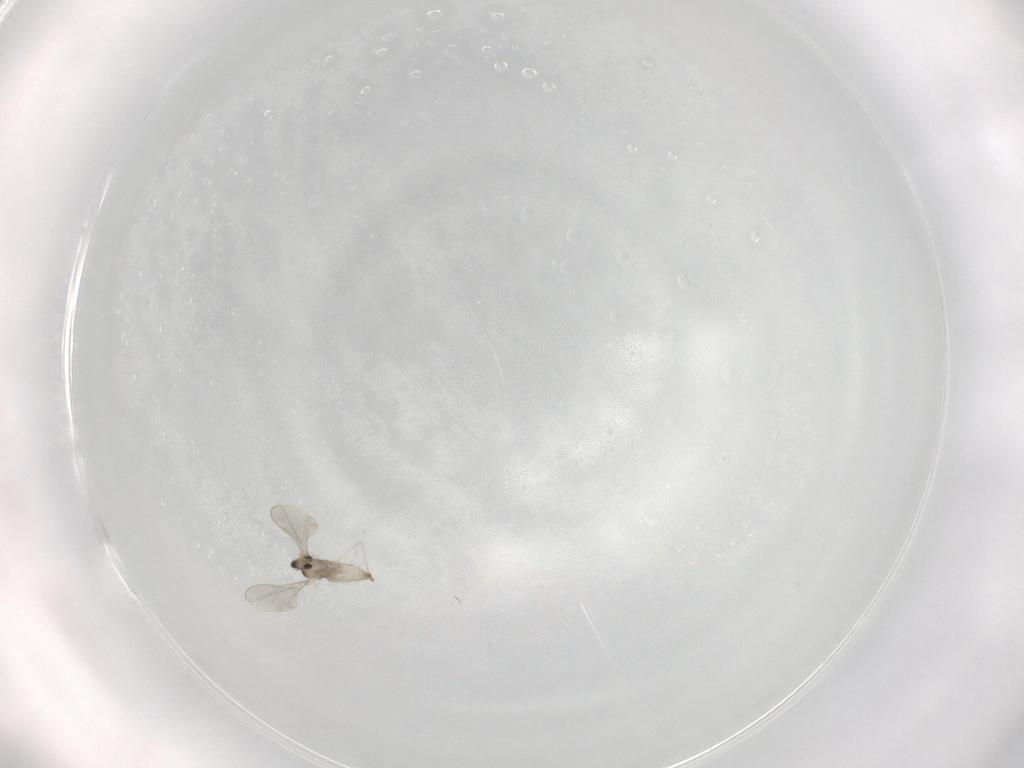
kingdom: Animalia
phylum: Arthropoda
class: Insecta
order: Diptera
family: Cecidomyiidae
